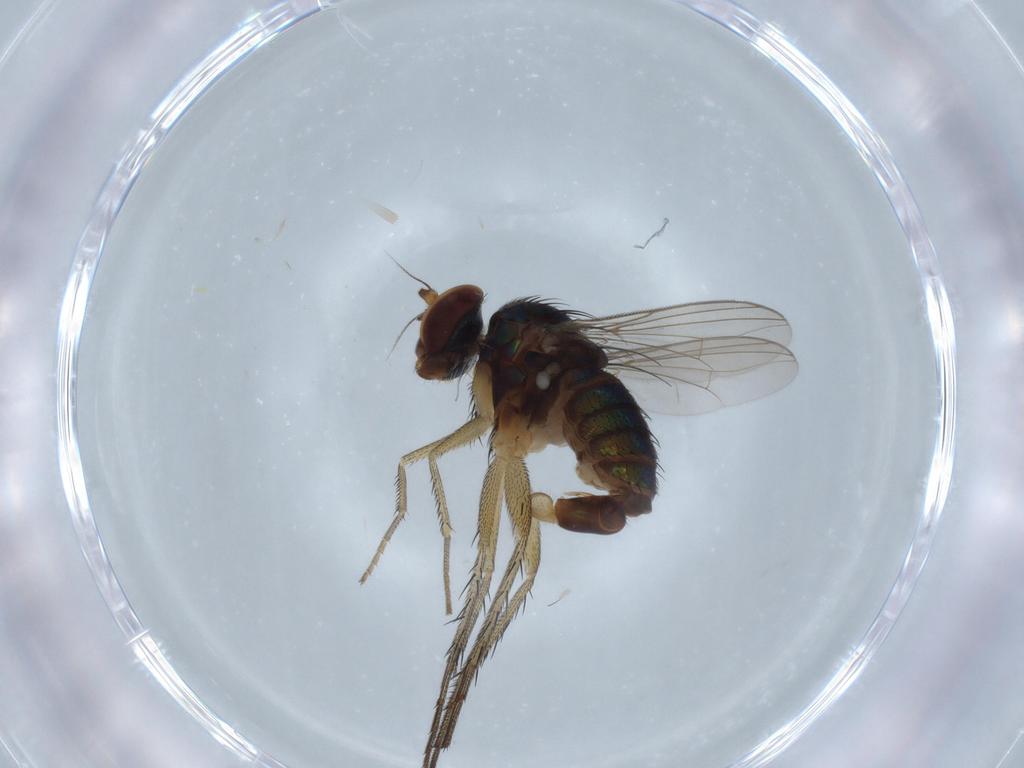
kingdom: Animalia
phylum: Arthropoda
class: Insecta
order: Diptera
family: Dolichopodidae
